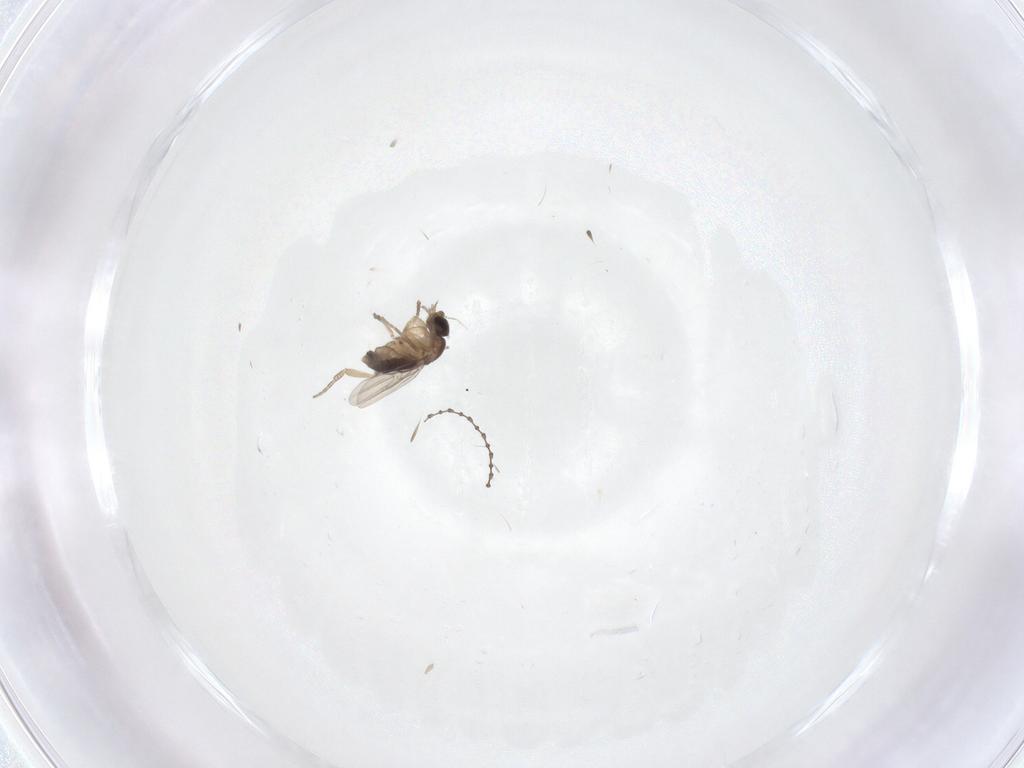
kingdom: Animalia
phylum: Arthropoda
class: Insecta
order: Diptera
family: Phoridae
